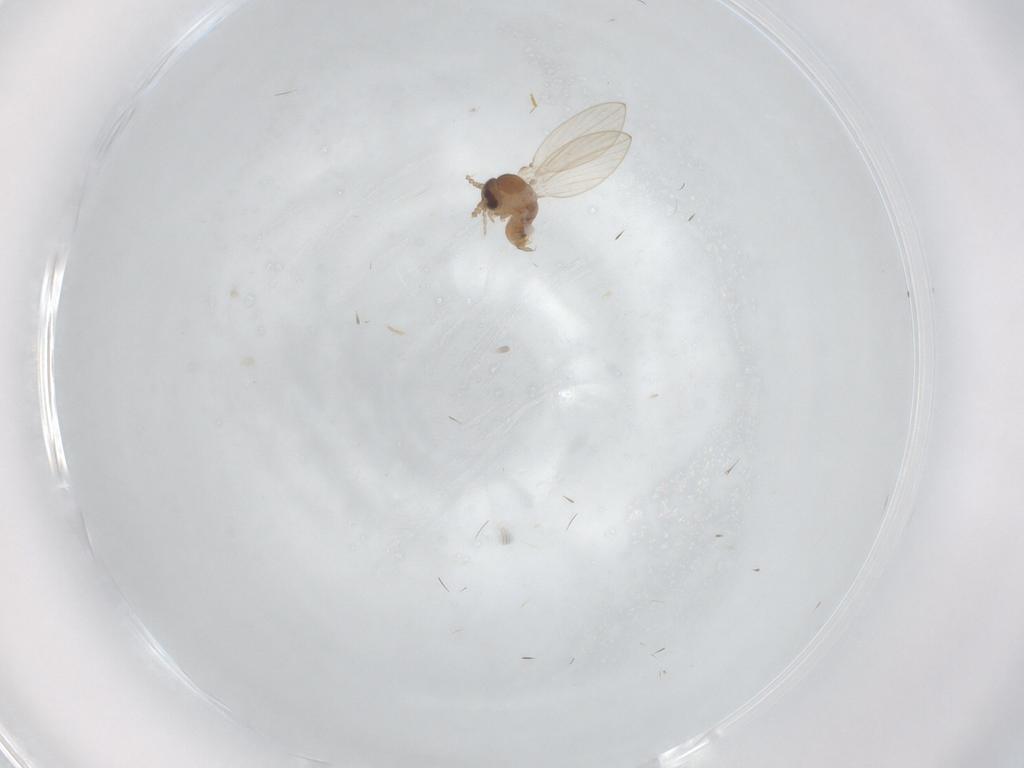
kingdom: Animalia
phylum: Arthropoda
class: Insecta
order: Diptera
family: Psychodidae
